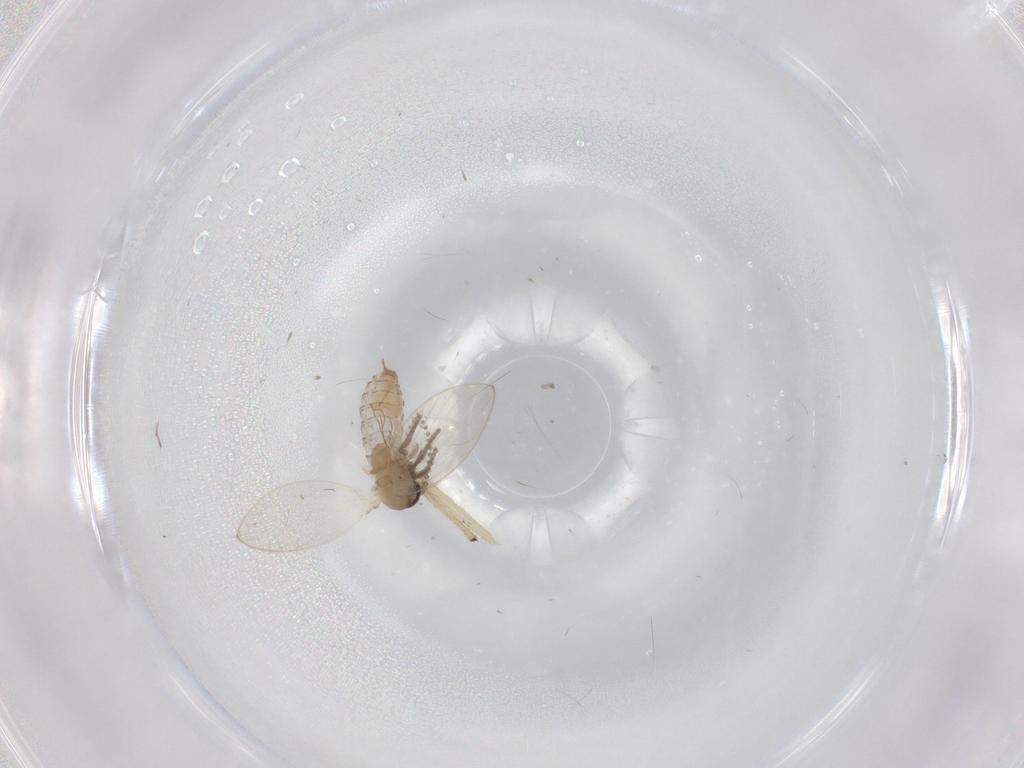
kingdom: Animalia
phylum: Arthropoda
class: Insecta
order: Diptera
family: Psychodidae
